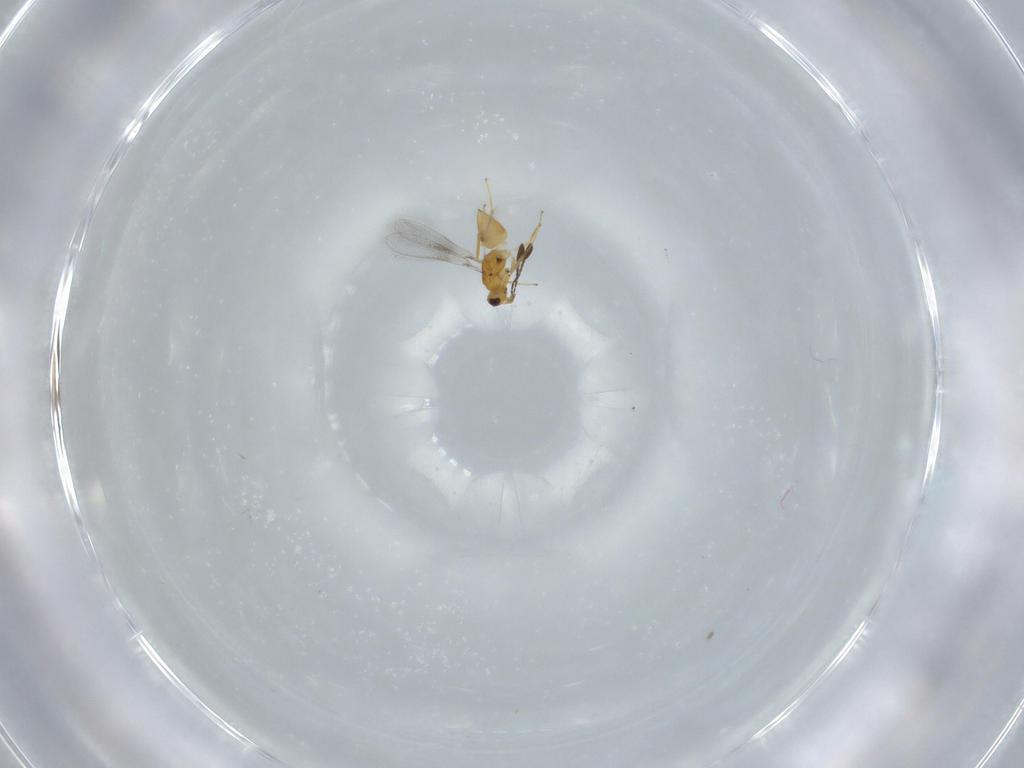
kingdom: Animalia
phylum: Arthropoda
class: Insecta
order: Hymenoptera
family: Mymaridae
